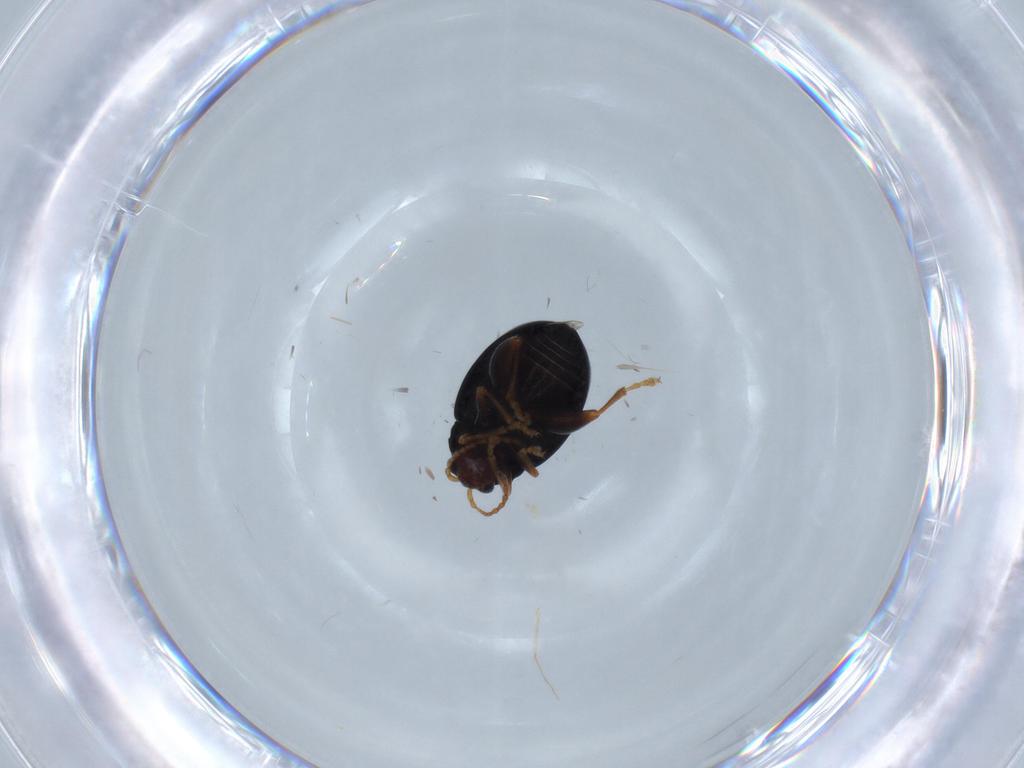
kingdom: Animalia
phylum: Arthropoda
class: Insecta
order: Coleoptera
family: Chrysomelidae
